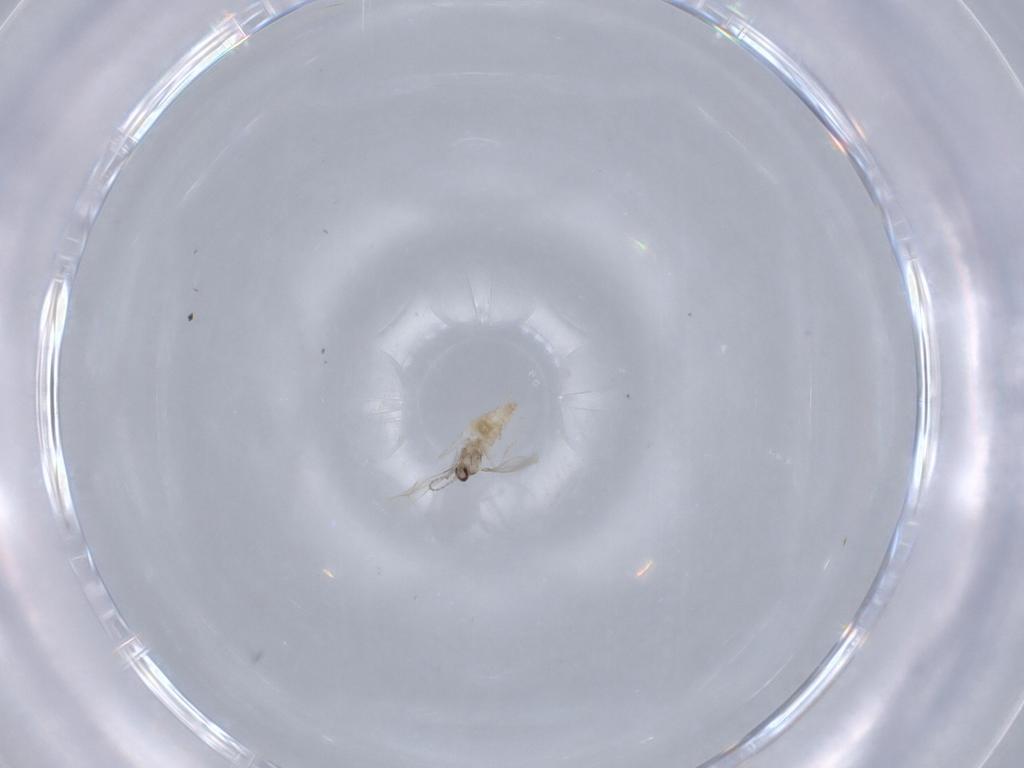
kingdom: Animalia
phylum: Arthropoda
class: Insecta
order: Diptera
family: Cecidomyiidae
